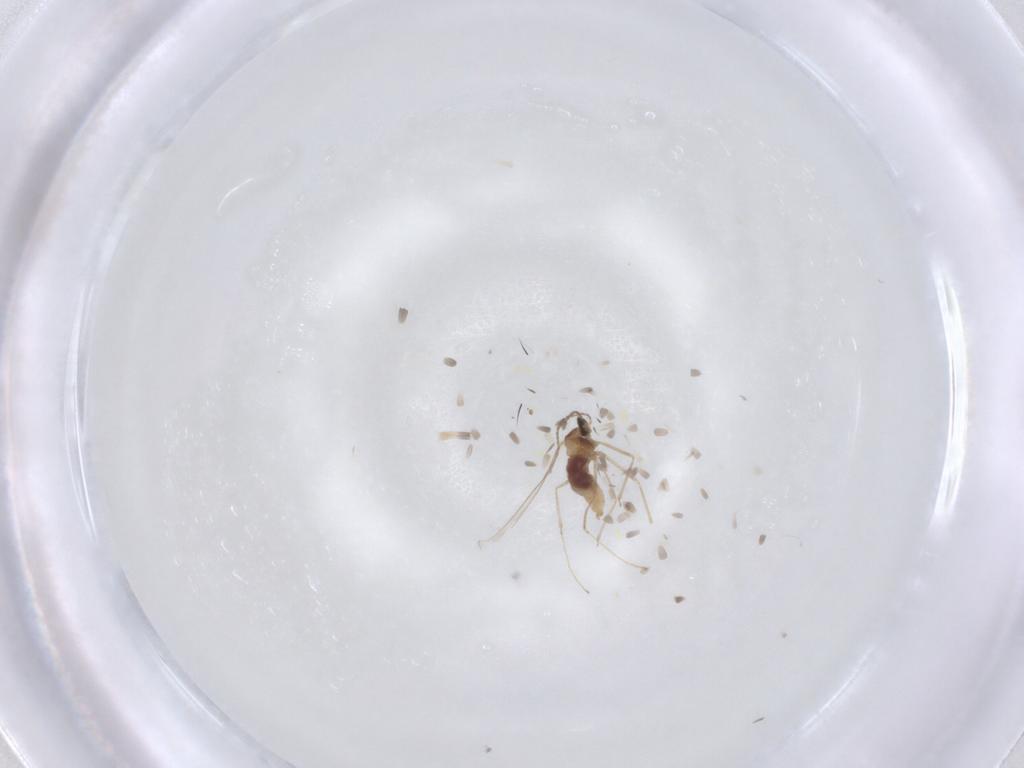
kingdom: Animalia
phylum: Arthropoda
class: Insecta
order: Diptera
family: Cecidomyiidae
